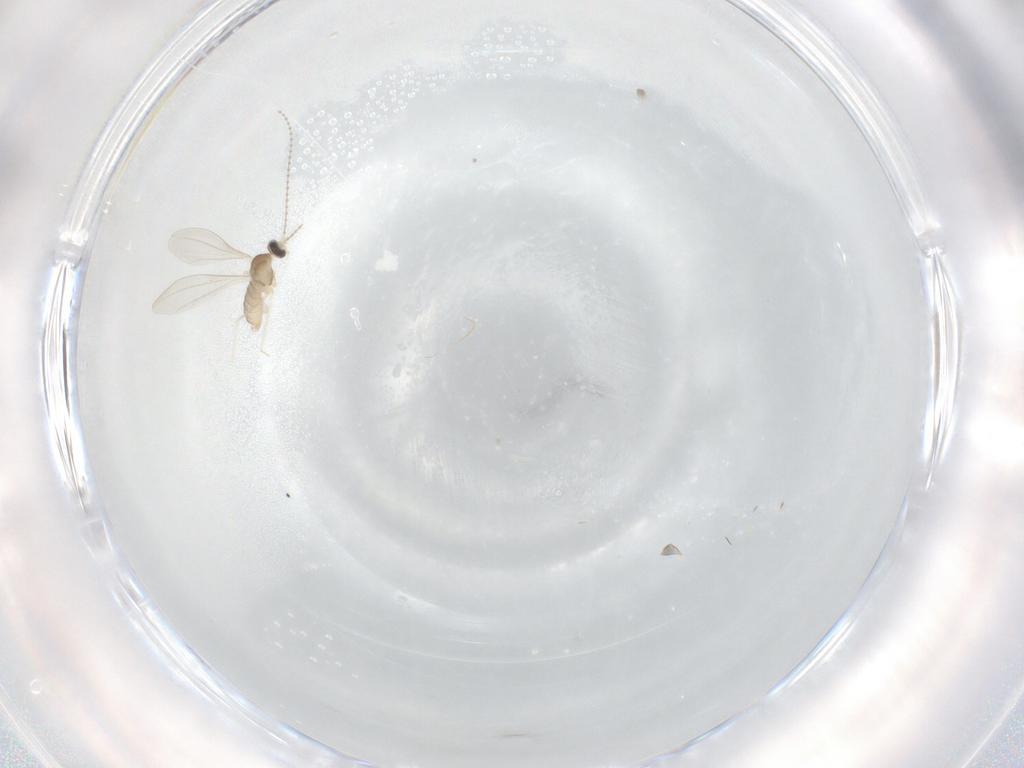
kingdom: Animalia
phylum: Arthropoda
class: Insecta
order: Diptera
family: Cecidomyiidae
